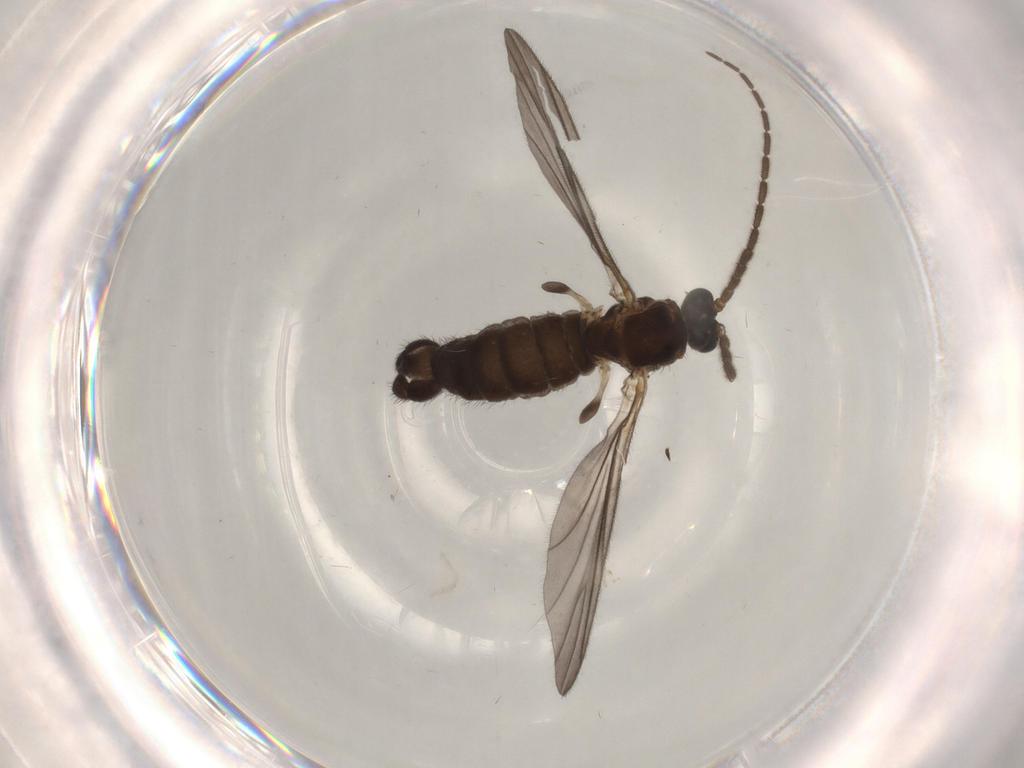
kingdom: Animalia
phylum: Arthropoda
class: Insecta
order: Diptera
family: Sciaridae
